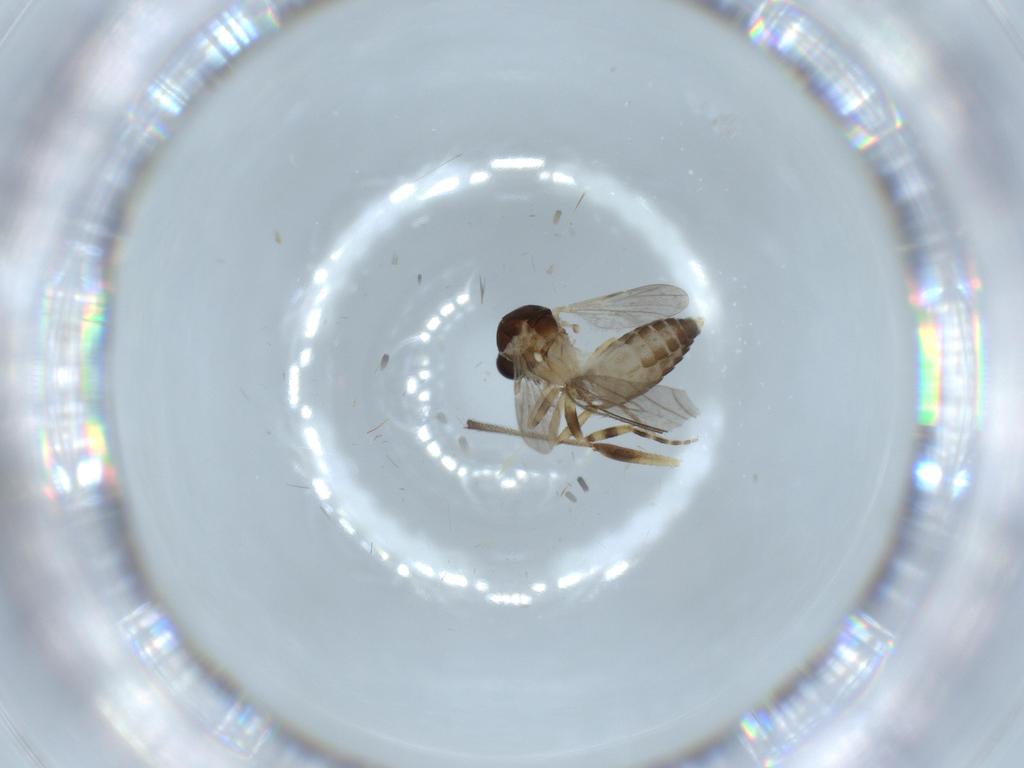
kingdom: Animalia
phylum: Arthropoda
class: Insecta
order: Diptera
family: Sciaridae
